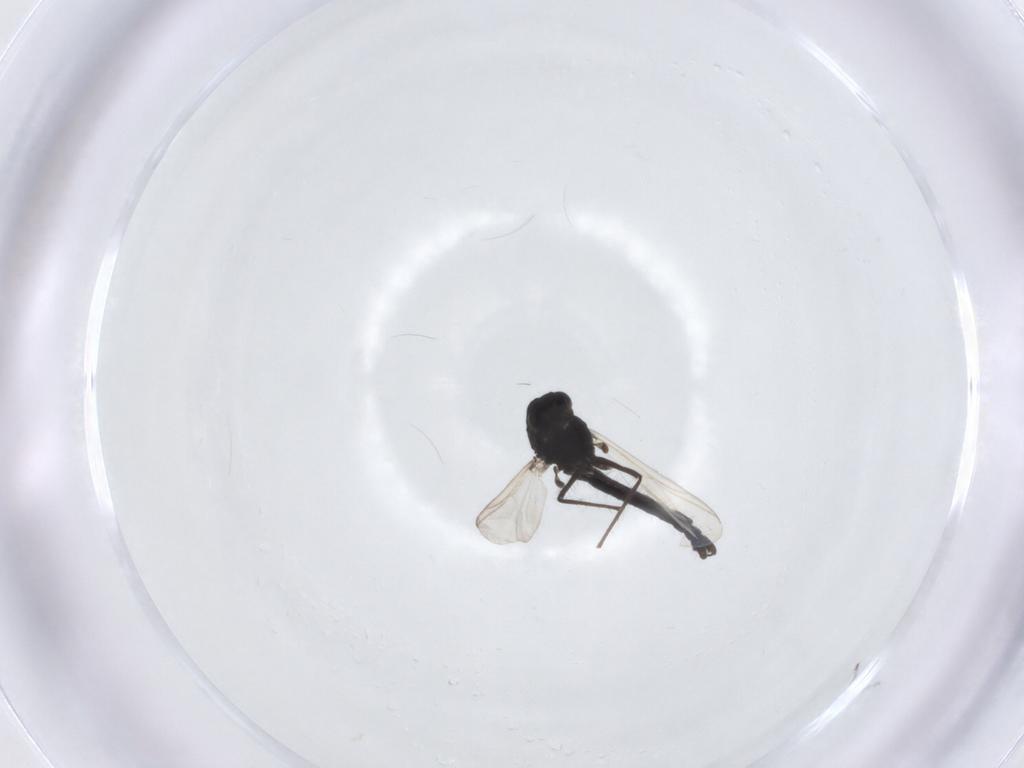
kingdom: Animalia
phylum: Arthropoda
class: Insecta
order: Diptera
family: Chironomidae
